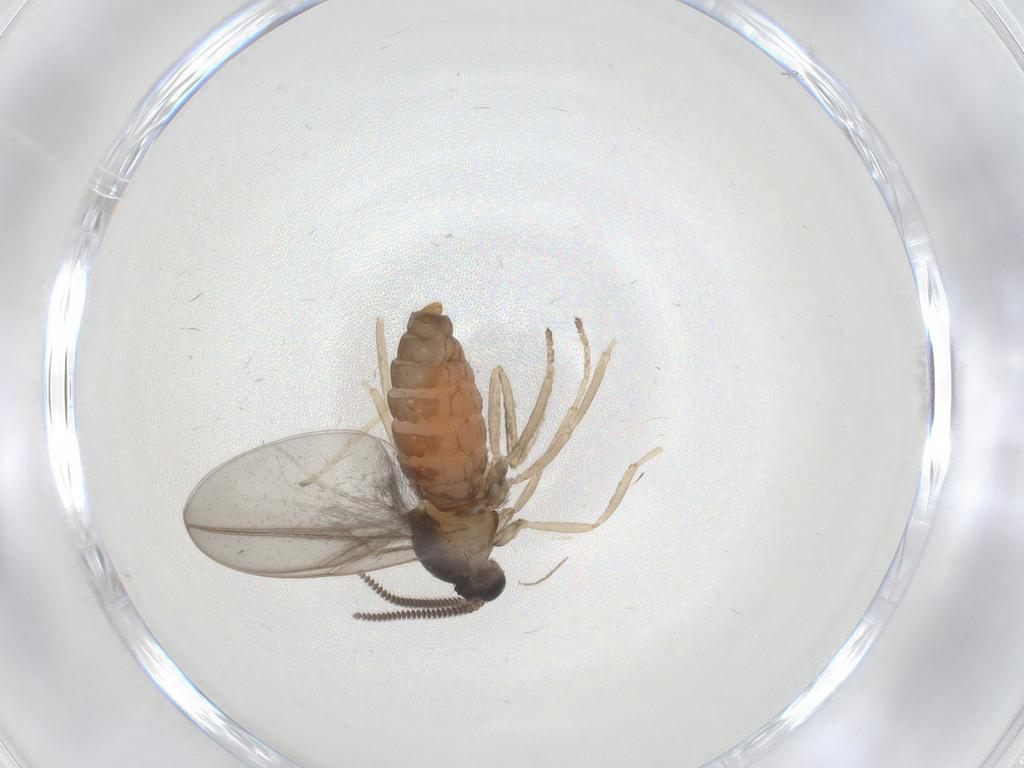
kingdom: Animalia
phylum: Arthropoda
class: Insecta
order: Diptera
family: Cecidomyiidae
